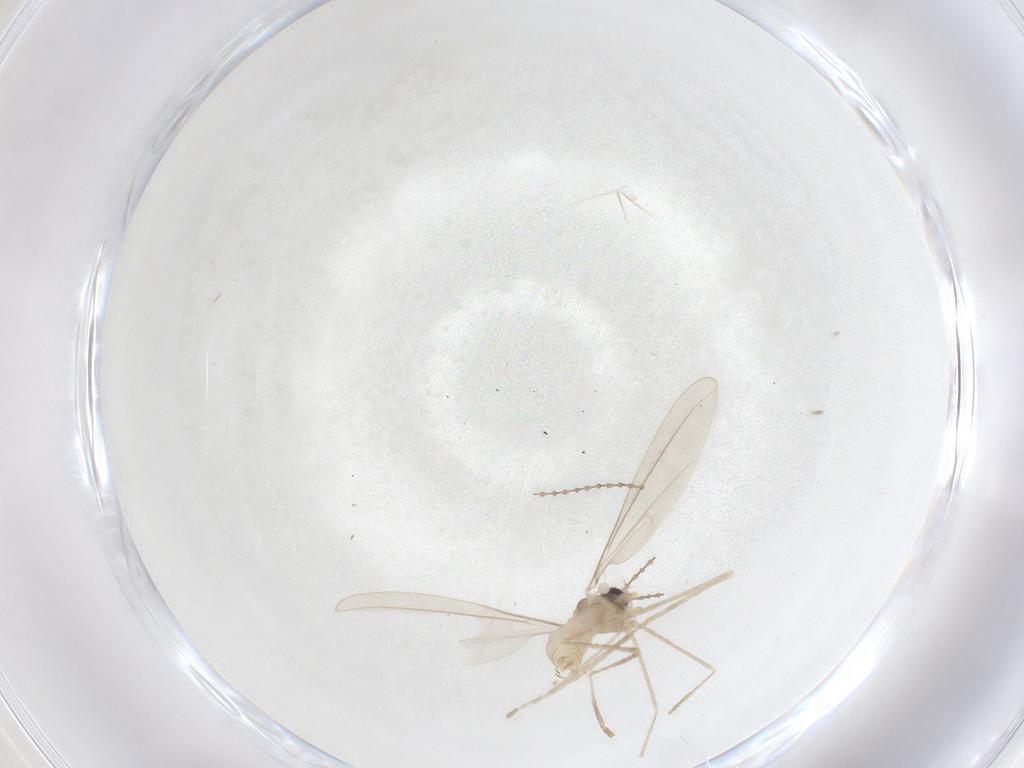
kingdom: Animalia
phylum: Arthropoda
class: Insecta
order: Diptera
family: Cecidomyiidae
